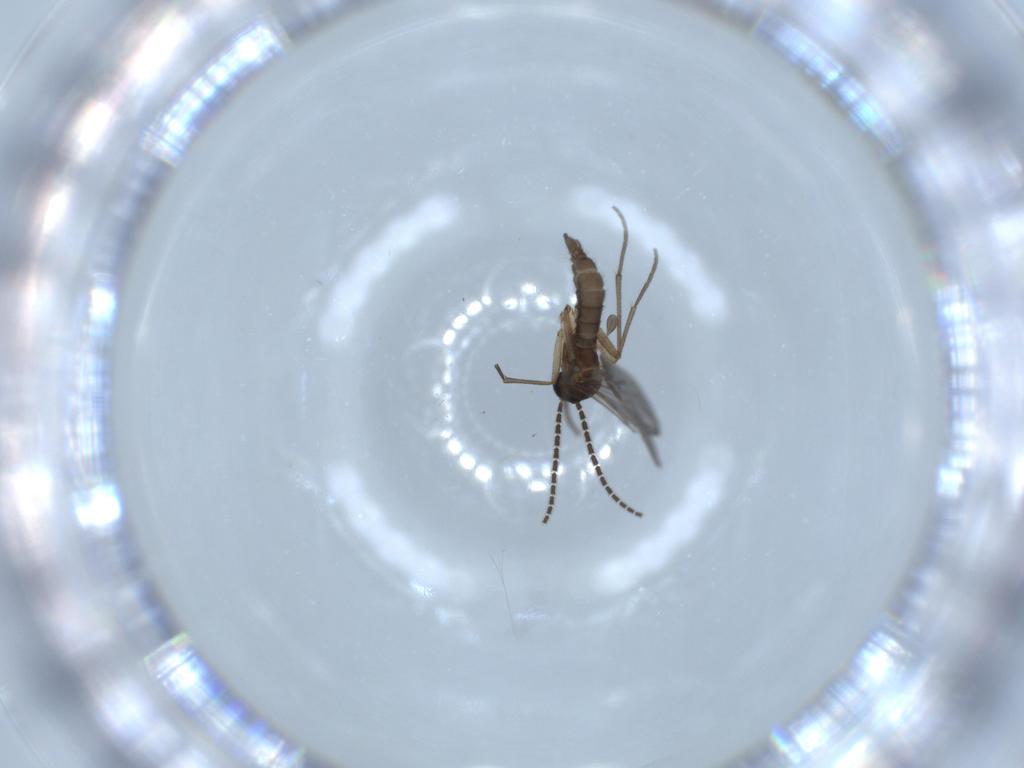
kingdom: Animalia
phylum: Arthropoda
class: Insecta
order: Diptera
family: Sciaridae
